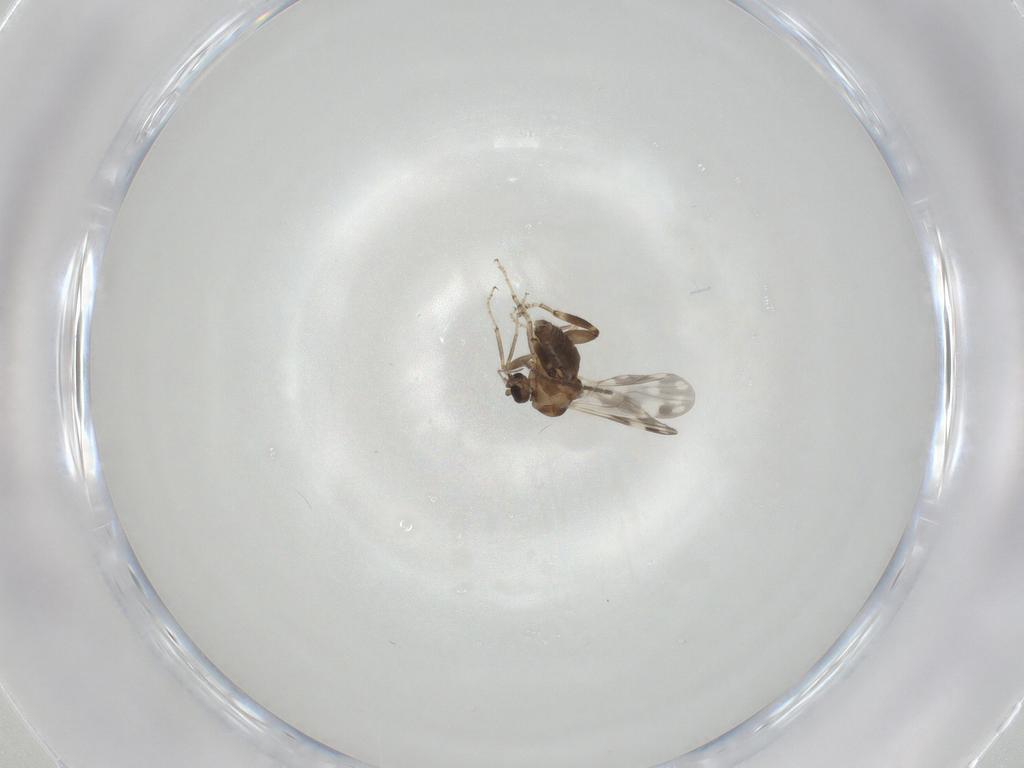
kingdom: Animalia
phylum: Arthropoda
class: Insecta
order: Diptera
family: Ceratopogonidae
